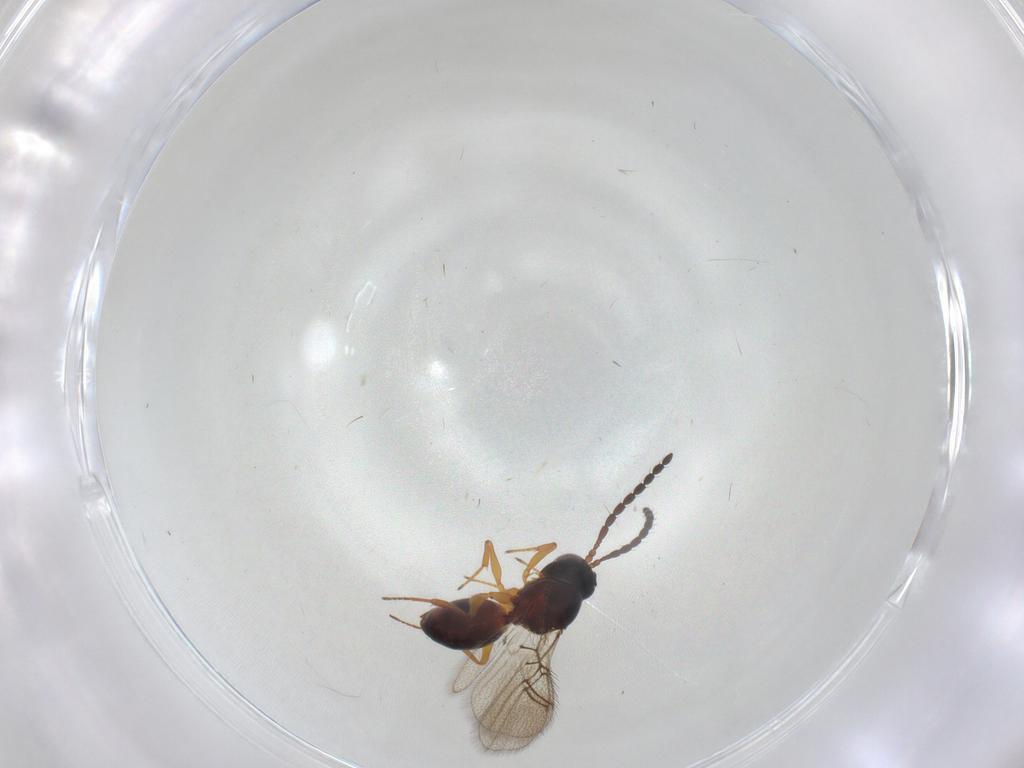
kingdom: Animalia
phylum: Arthropoda
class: Insecta
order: Hymenoptera
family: Figitidae
